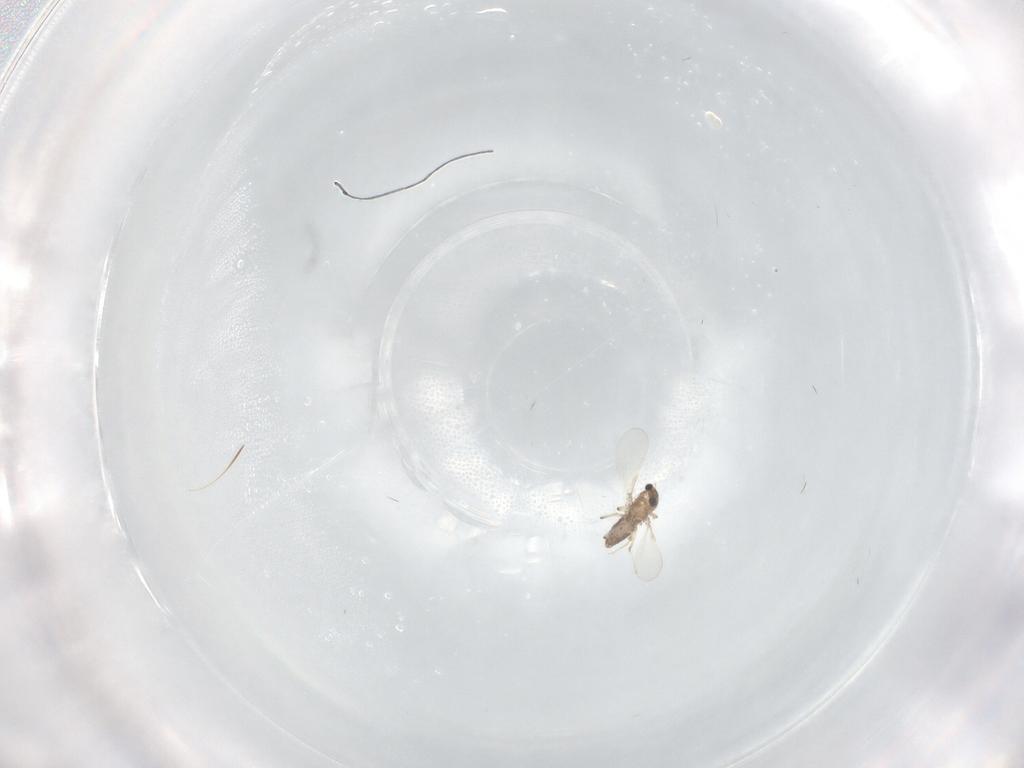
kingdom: Animalia
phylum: Arthropoda
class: Insecta
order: Diptera
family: Chironomidae
